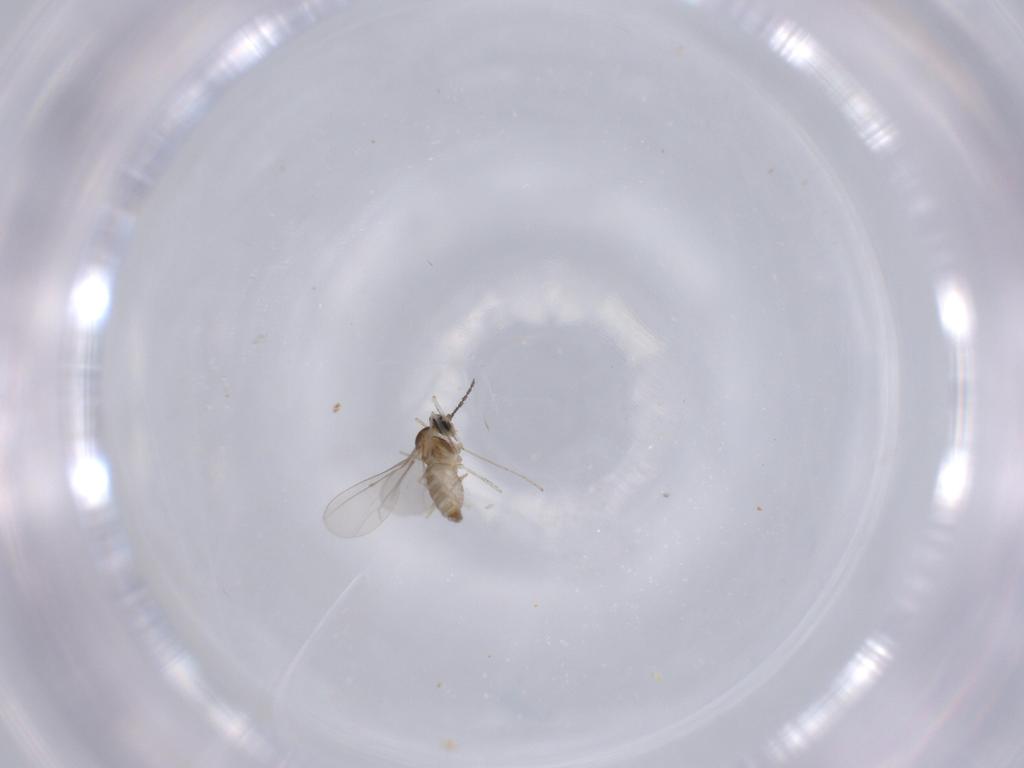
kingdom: Animalia
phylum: Arthropoda
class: Insecta
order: Diptera
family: Cecidomyiidae
